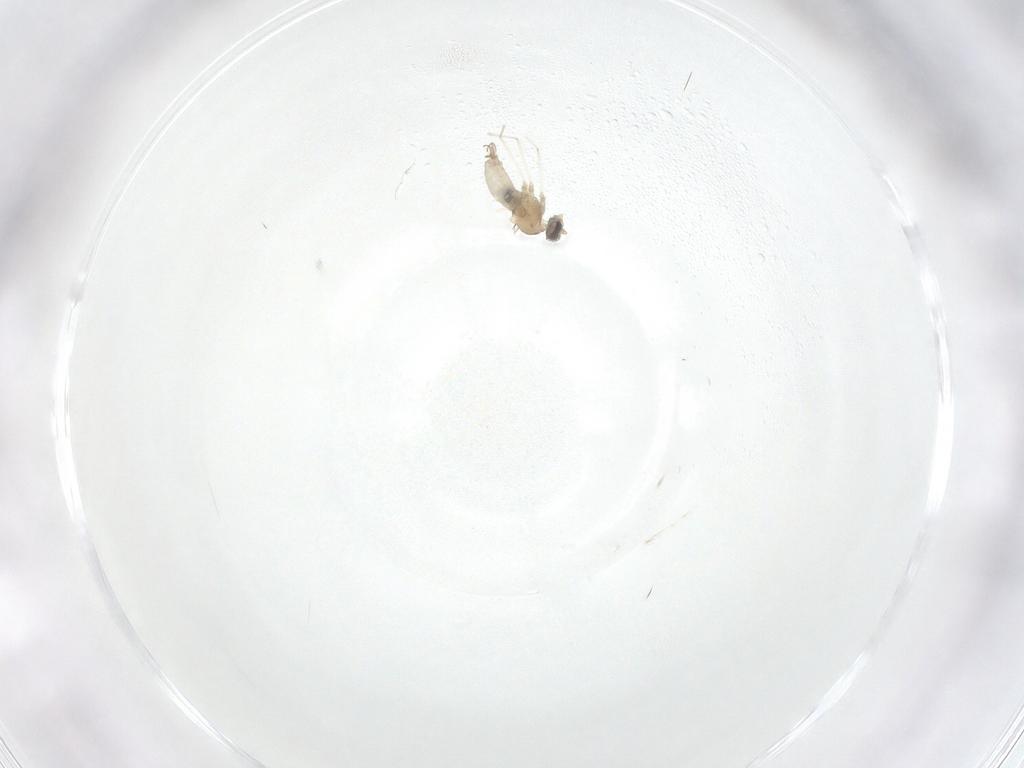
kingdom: Animalia
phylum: Arthropoda
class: Insecta
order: Diptera
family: Cecidomyiidae
